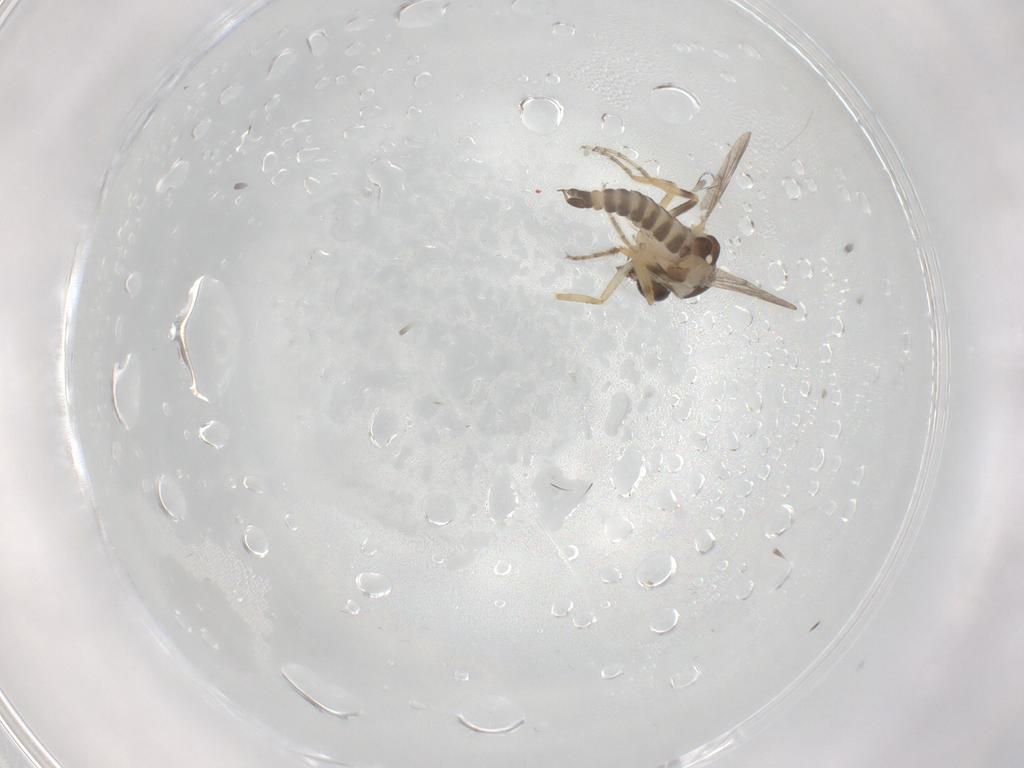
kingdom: Animalia
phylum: Arthropoda
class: Insecta
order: Diptera
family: Ceratopogonidae
